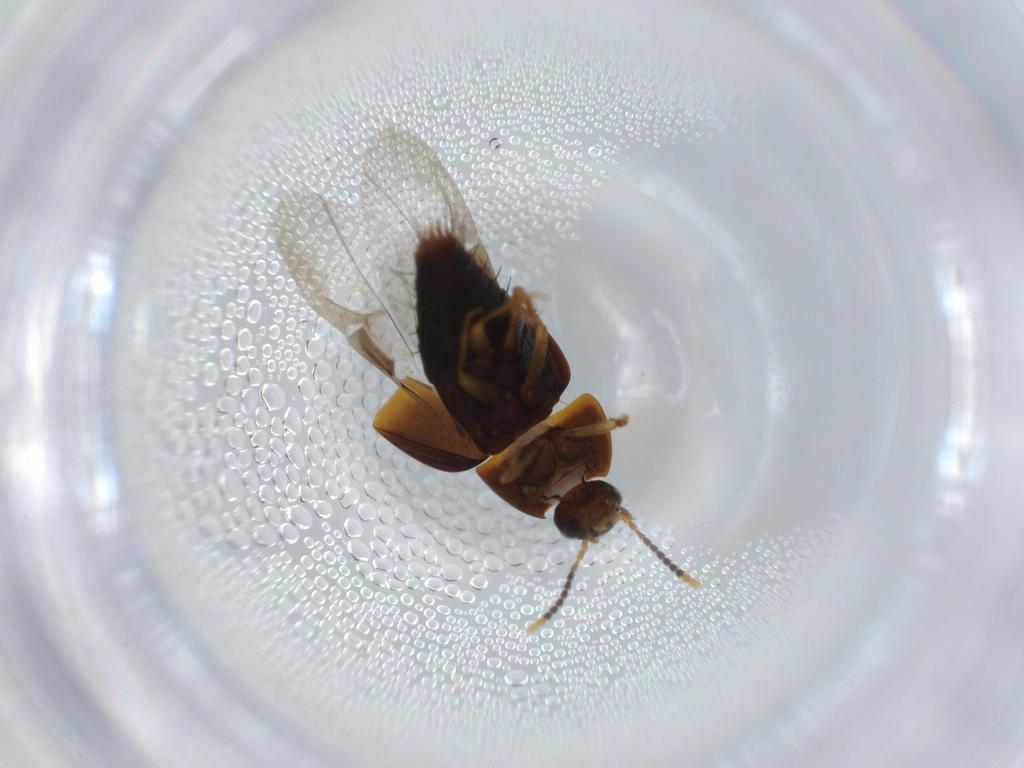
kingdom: Animalia
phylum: Arthropoda
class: Insecta
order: Coleoptera
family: Staphylinidae
